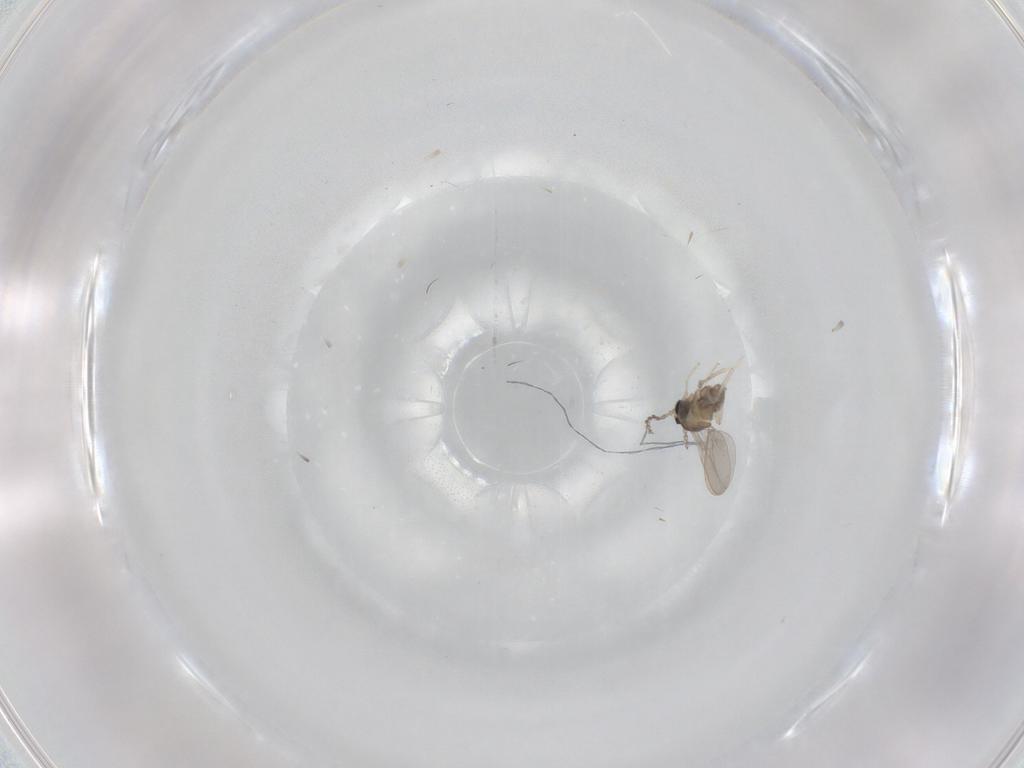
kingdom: Animalia
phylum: Arthropoda
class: Insecta
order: Diptera
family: Cecidomyiidae
